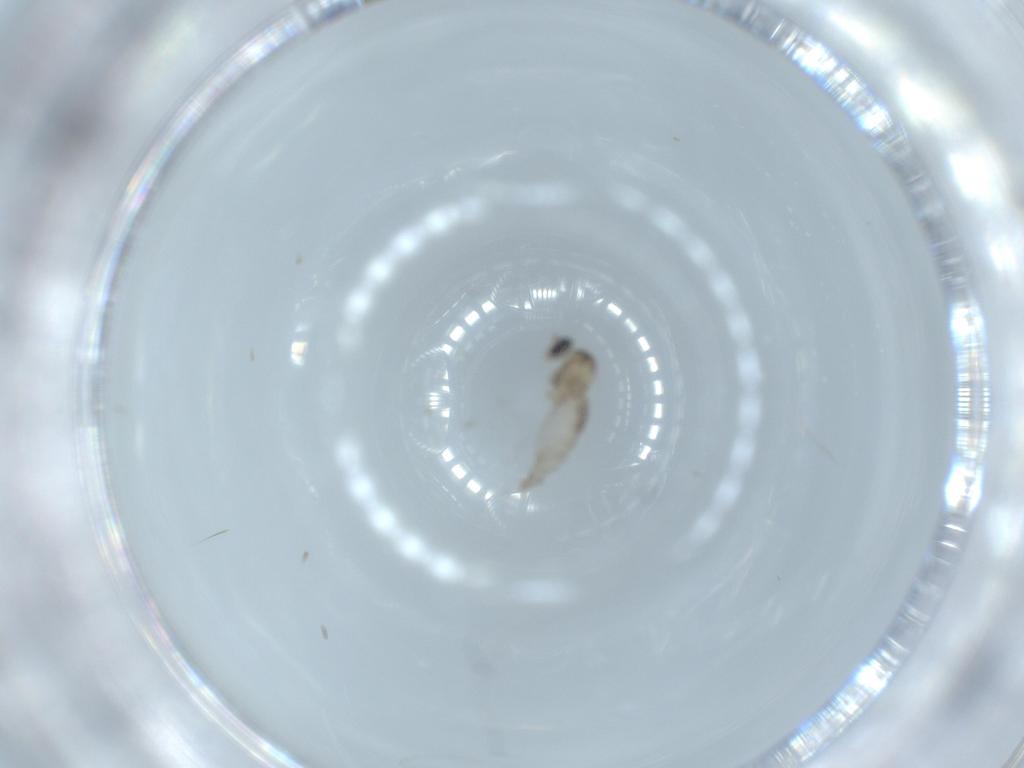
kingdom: Animalia
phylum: Arthropoda
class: Insecta
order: Diptera
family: Cecidomyiidae
